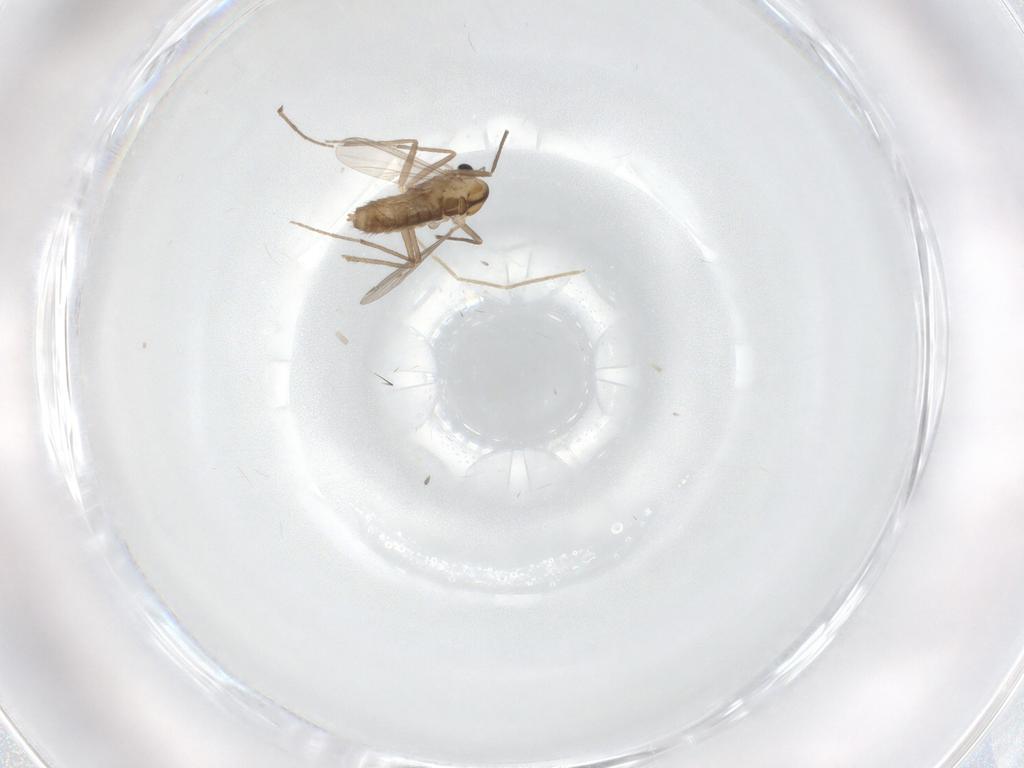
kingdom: Animalia
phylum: Arthropoda
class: Insecta
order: Diptera
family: Chironomidae
